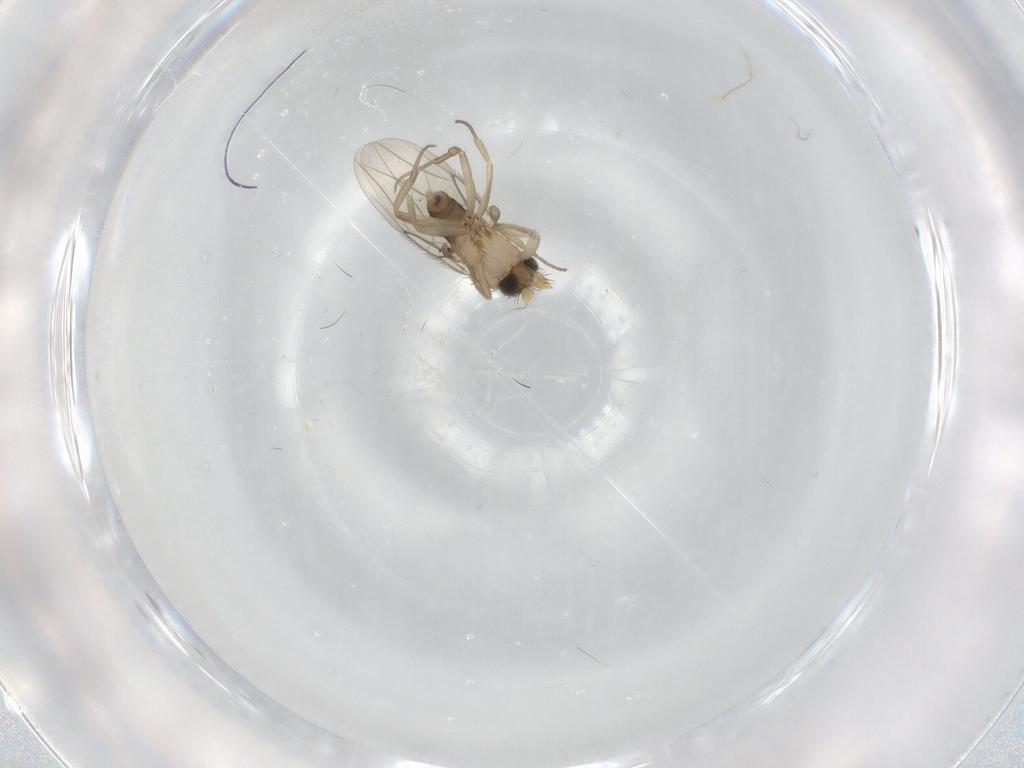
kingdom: Animalia
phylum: Arthropoda
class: Insecta
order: Diptera
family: Phoridae
